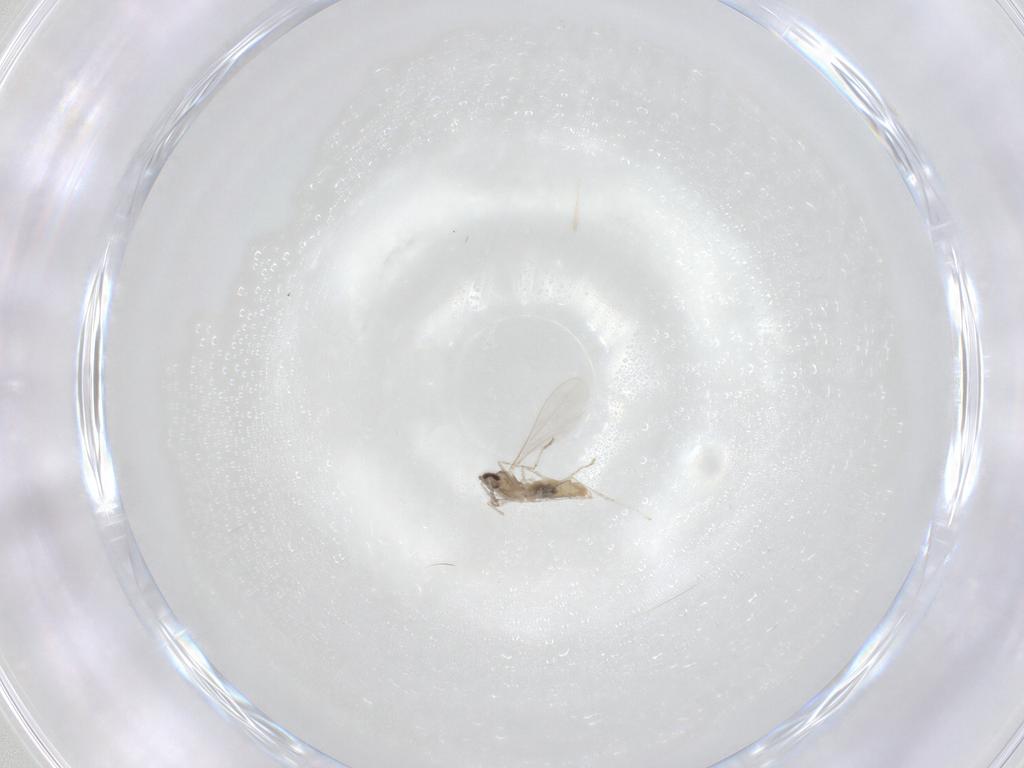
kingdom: Animalia
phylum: Arthropoda
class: Insecta
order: Diptera
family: Cecidomyiidae
